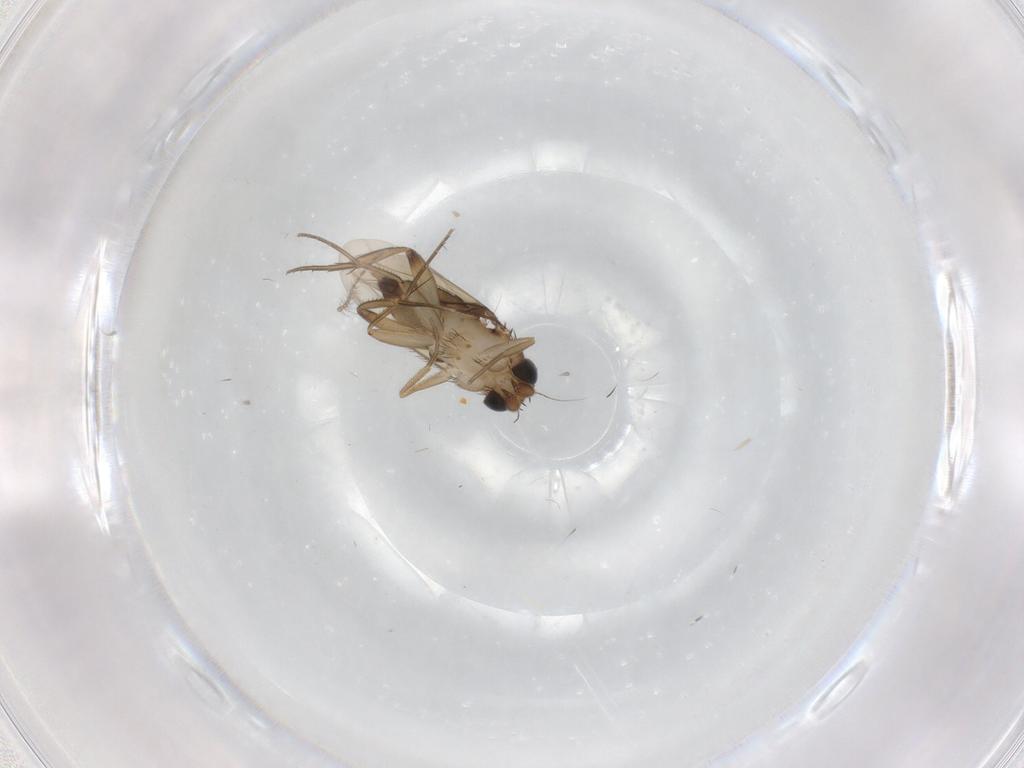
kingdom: Animalia
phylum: Arthropoda
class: Insecta
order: Diptera
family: Phoridae
